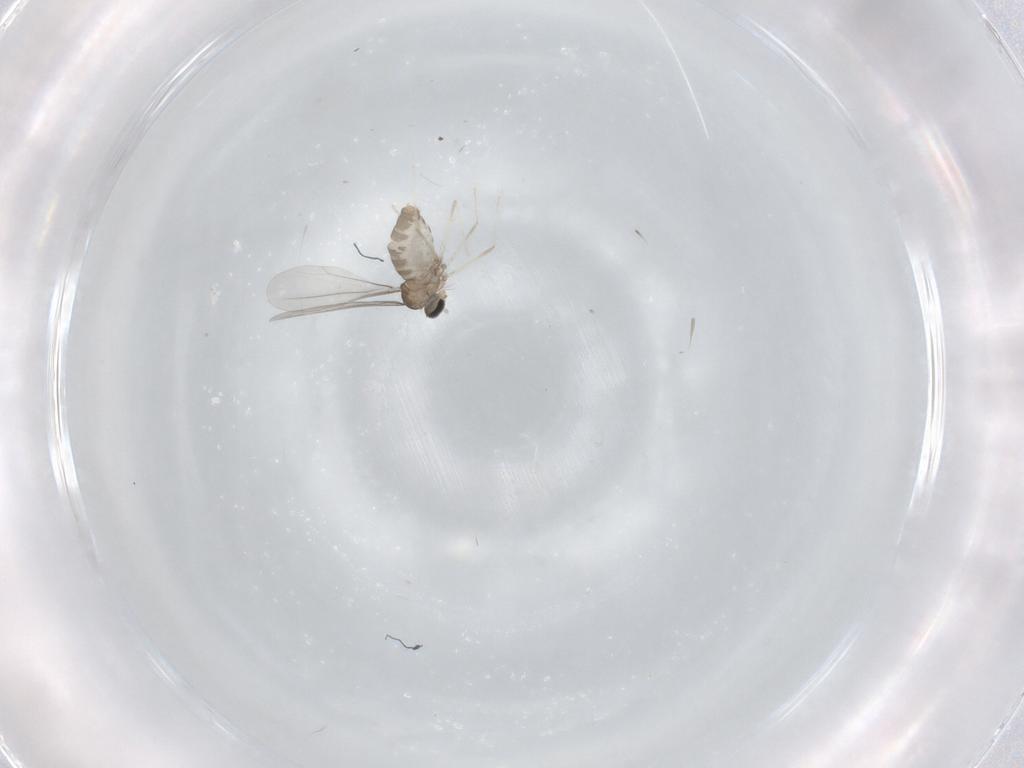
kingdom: Animalia
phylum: Arthropoda
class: Insecta
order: Diptera
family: Cecidomyiidae
